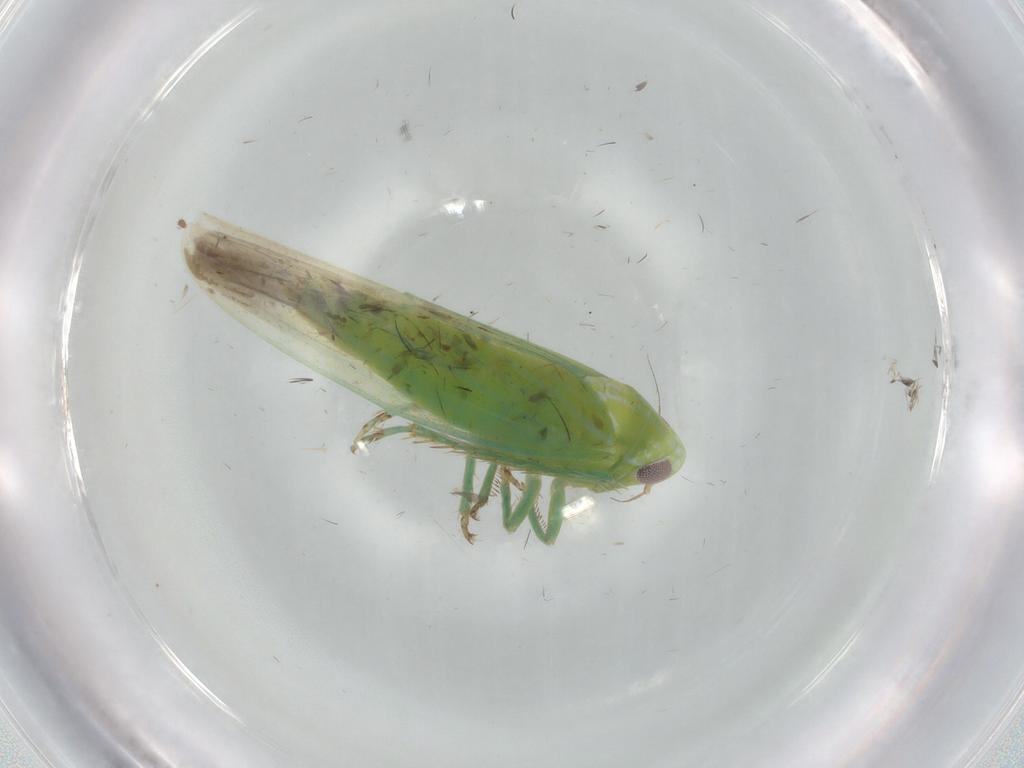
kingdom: Animalia
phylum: Arthropoda
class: Insecta
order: Hemiptera
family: Cicadellidae
